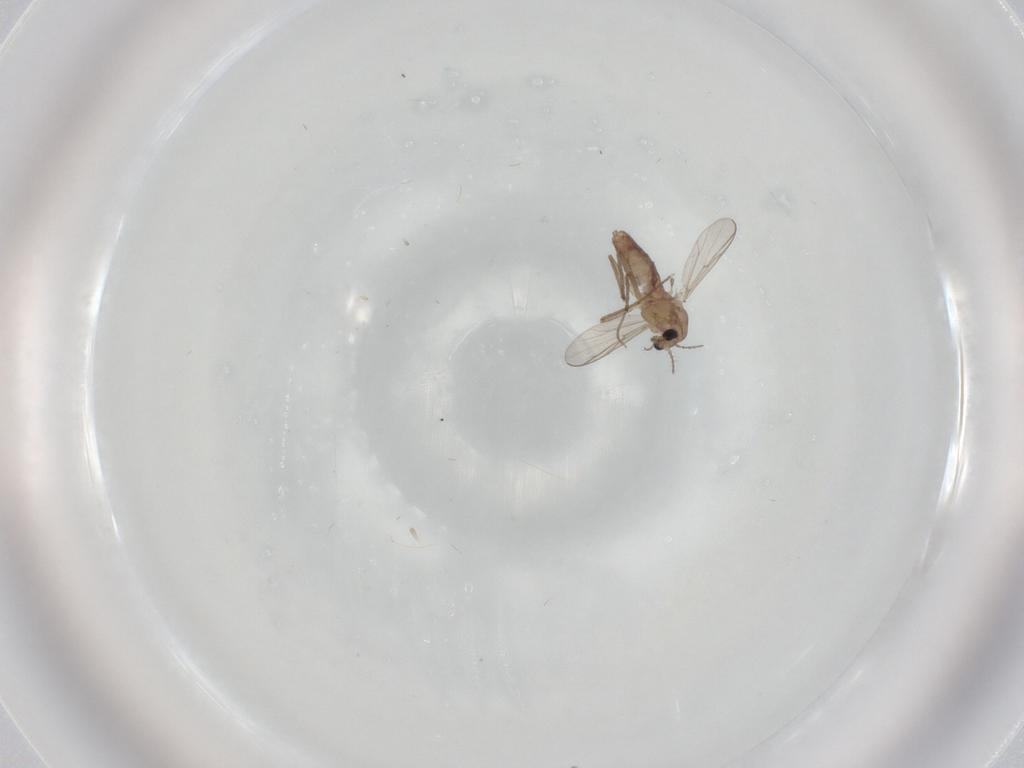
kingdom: Animalia
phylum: Arthropoda
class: Insecta
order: Diptera
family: Chironomidae
